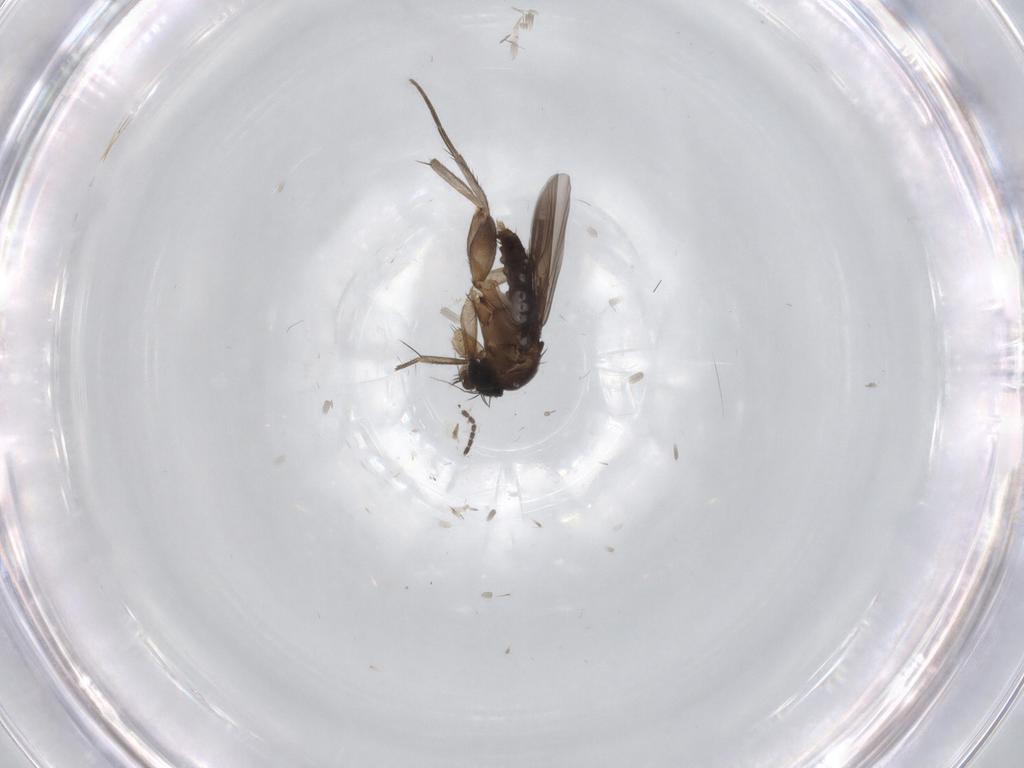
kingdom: Animalia
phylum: Arthropoda
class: Insecta
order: Diptera
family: Phoridae
